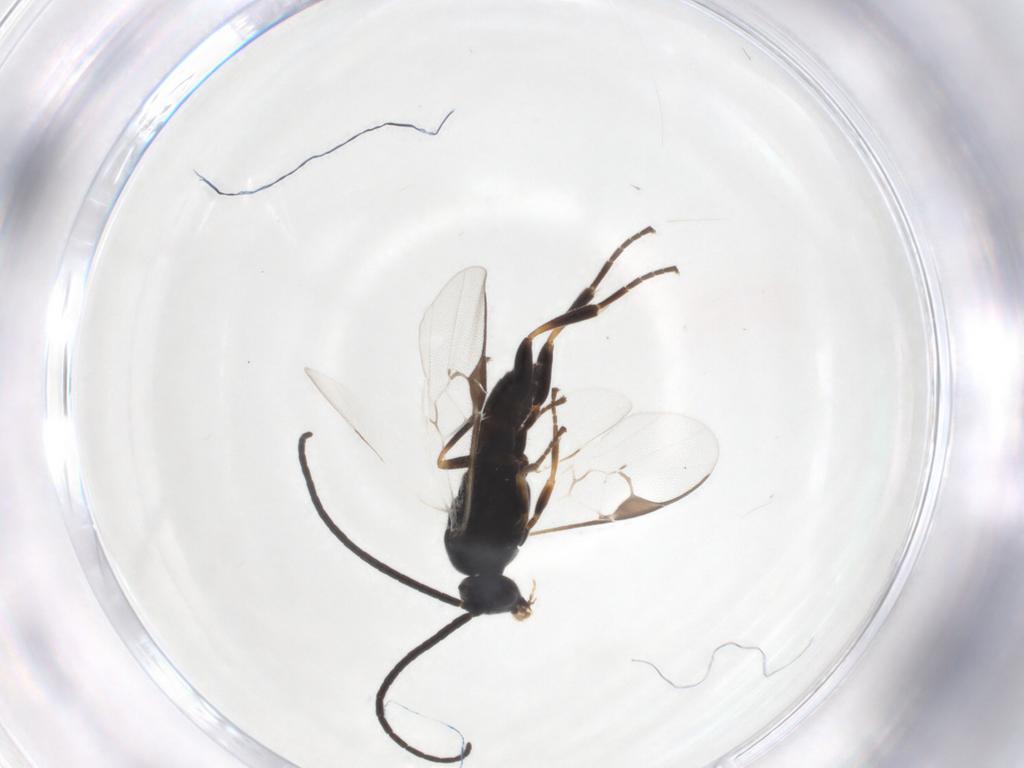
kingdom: Animalia
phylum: Arthropoda
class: Insecta
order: Hymenoptera
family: Braconidae
